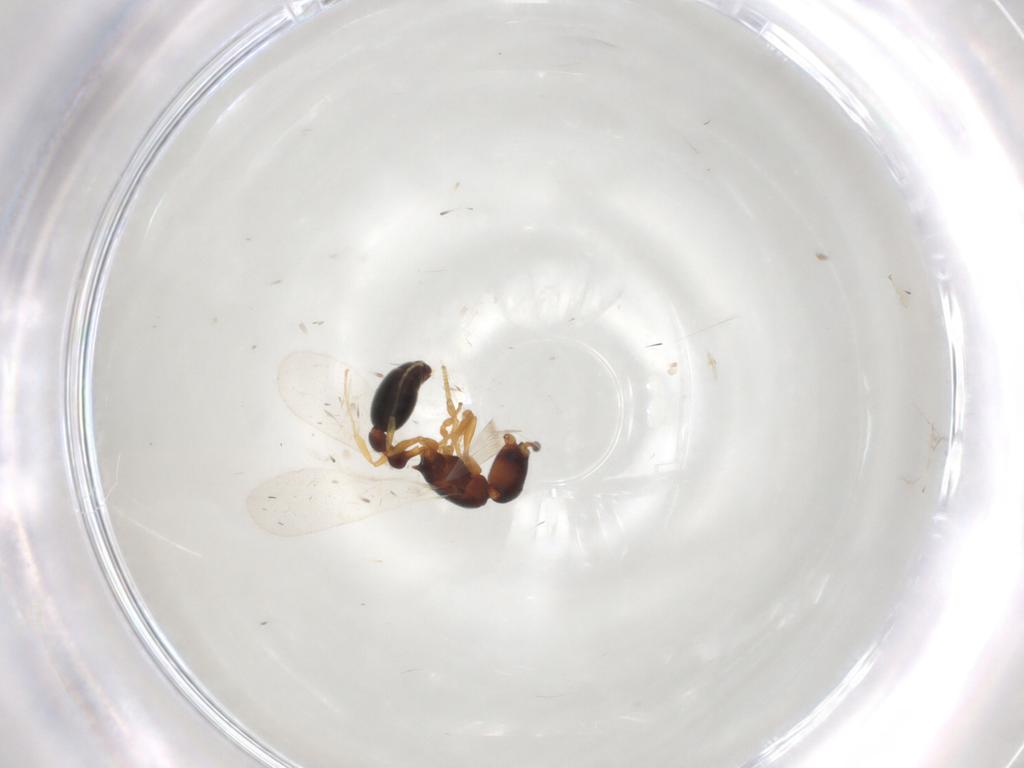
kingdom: Animalia
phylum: Arthropoda
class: Insecta
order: Hymenoptera
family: Formicidae
